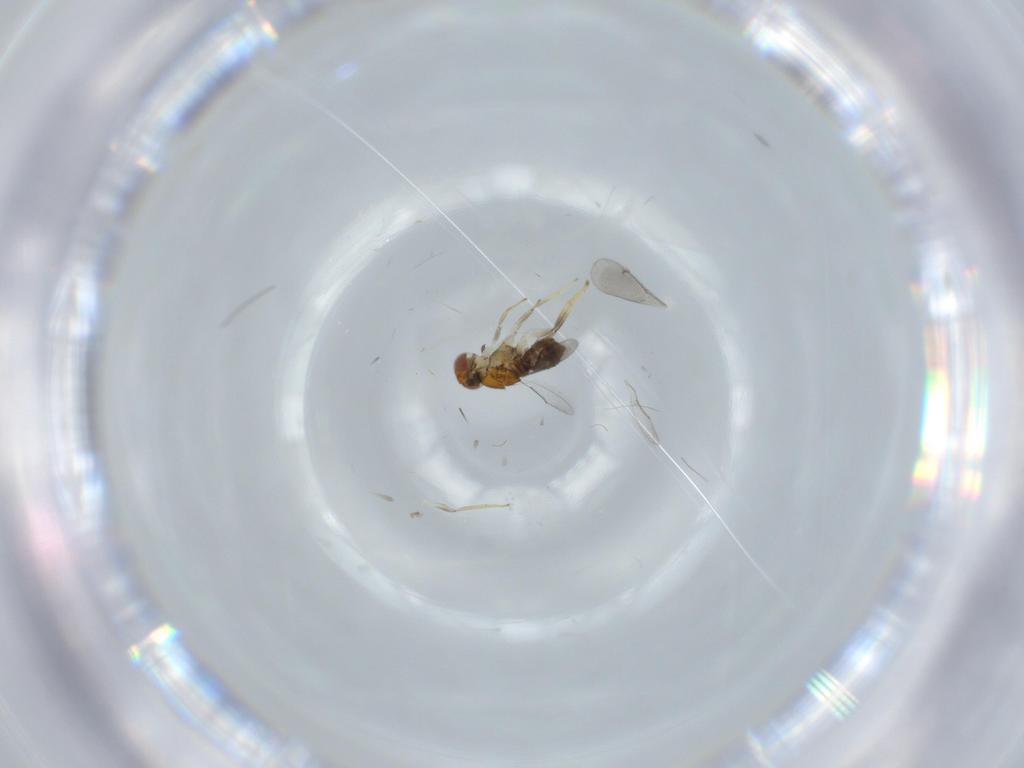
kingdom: Animalia
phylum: Arthropoda
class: Insecta
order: Hymenoptera
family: Aphelinidae
